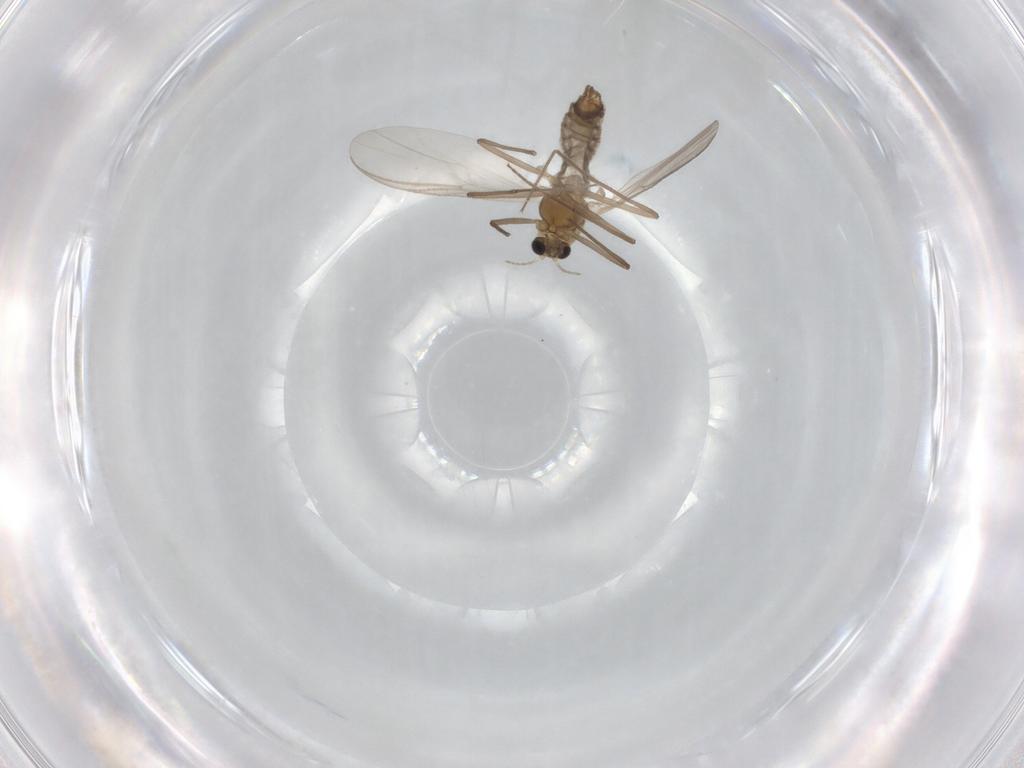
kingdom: Animalia
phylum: Arthropoda
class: Insecta
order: Diptera
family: Chironomidae
